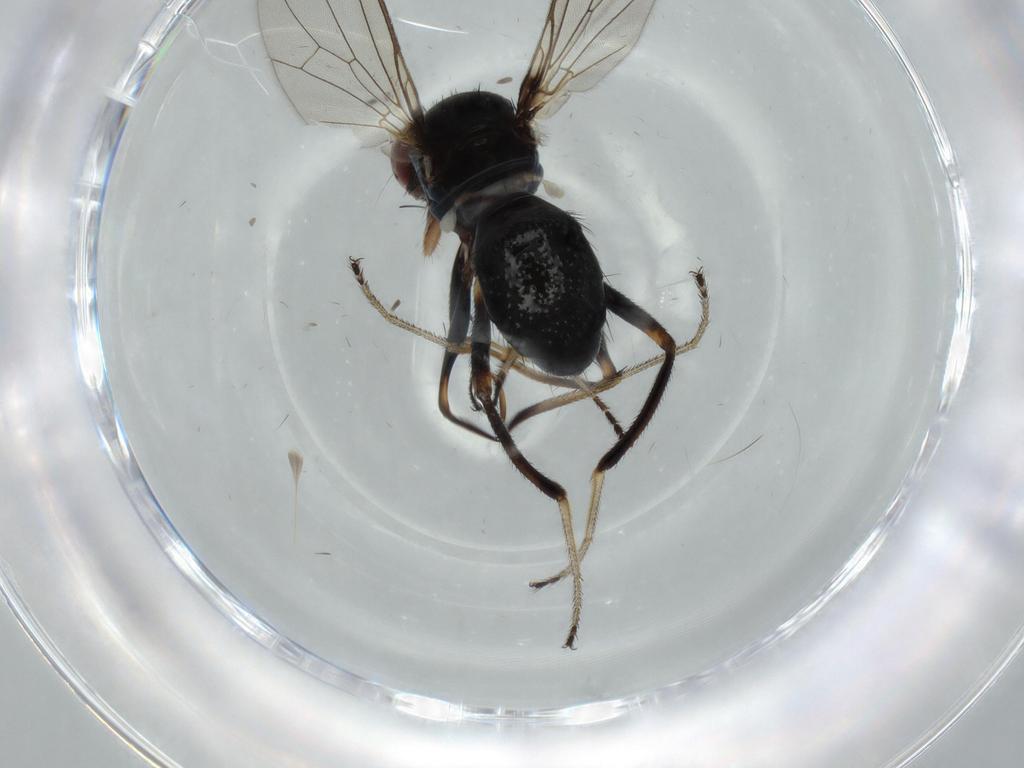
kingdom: Animalia
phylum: Arthropoda
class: Insecta
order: Diptera
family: Sepsidae
